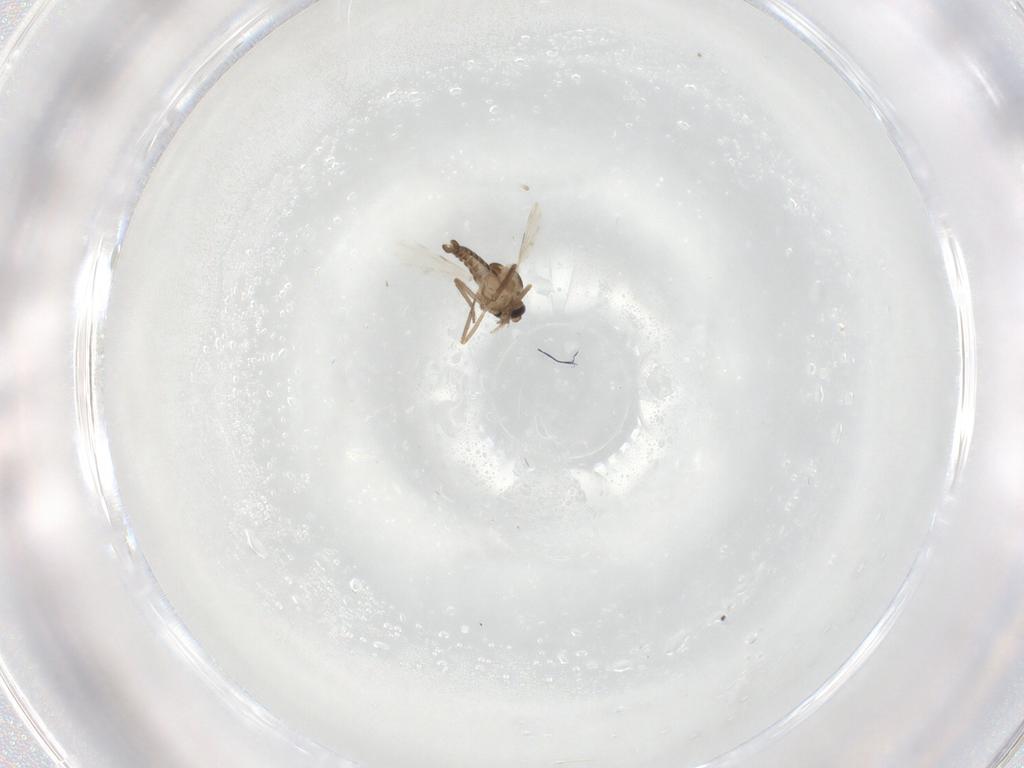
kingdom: Animalia
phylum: Arthropoda
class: Insecta
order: Diptera
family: Ceratopogonidae
